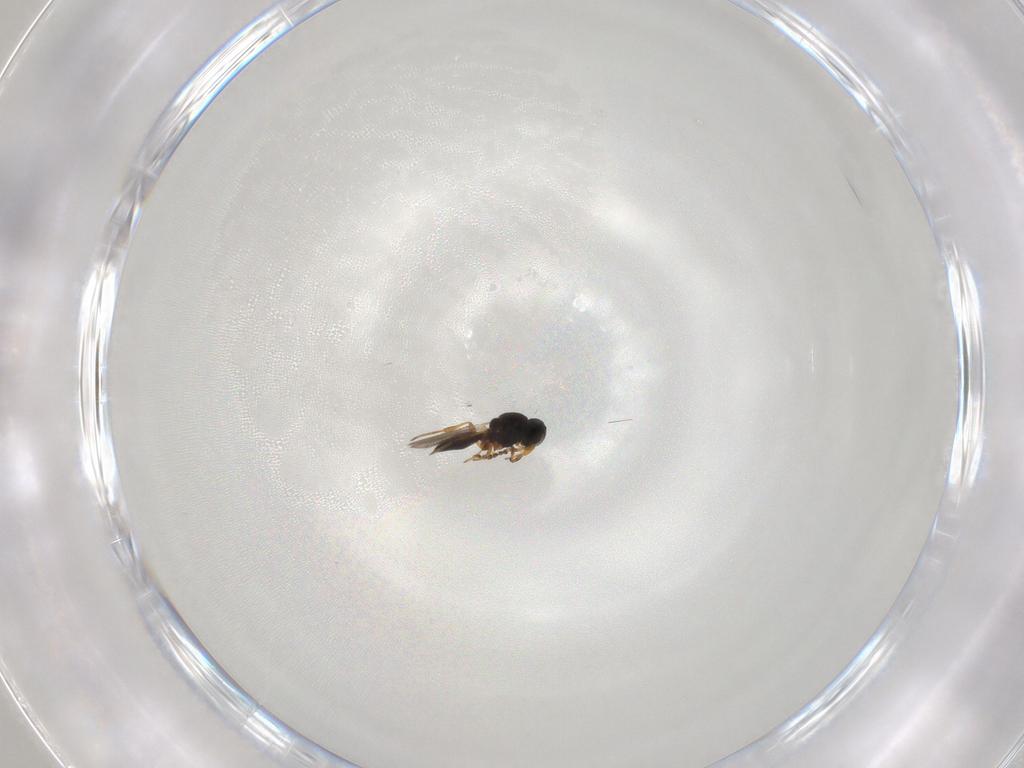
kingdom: Animalia
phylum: Arthropoda
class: Insecta
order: Hymenoptera
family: Platygastridae
